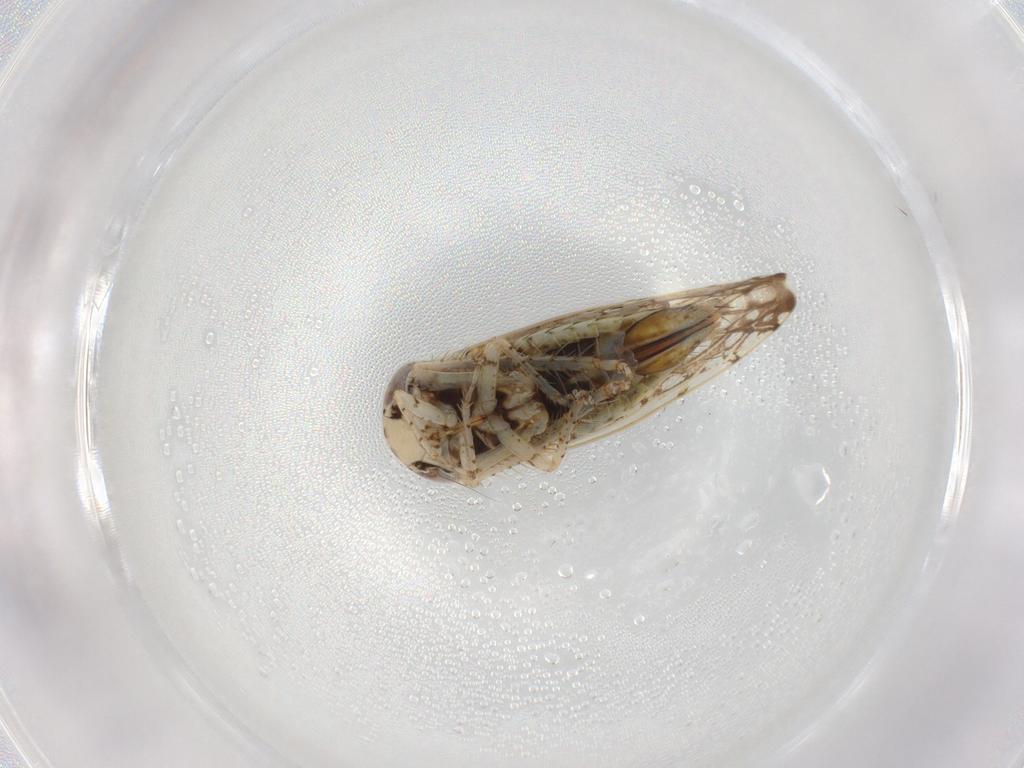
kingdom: Animalia
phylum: Arthropoda
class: Insecta
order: Hemiptera
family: Cicadellidae
